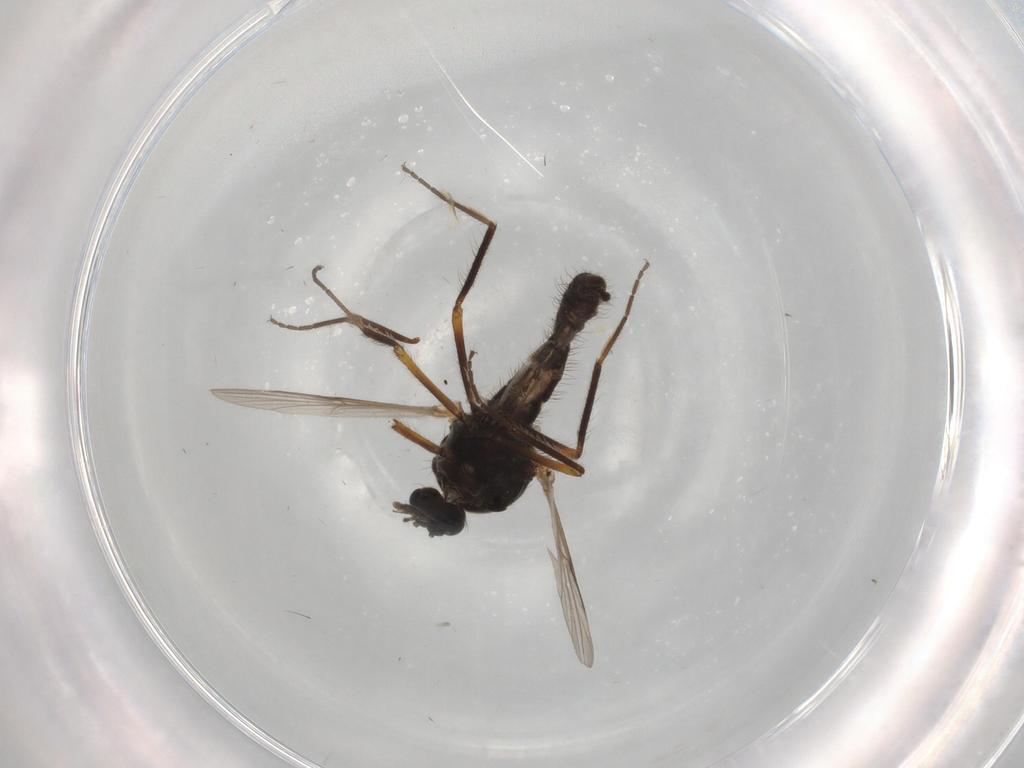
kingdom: Animalia
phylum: Arthropoda
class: Insecta
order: Diptera
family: Ceratopogonidae
